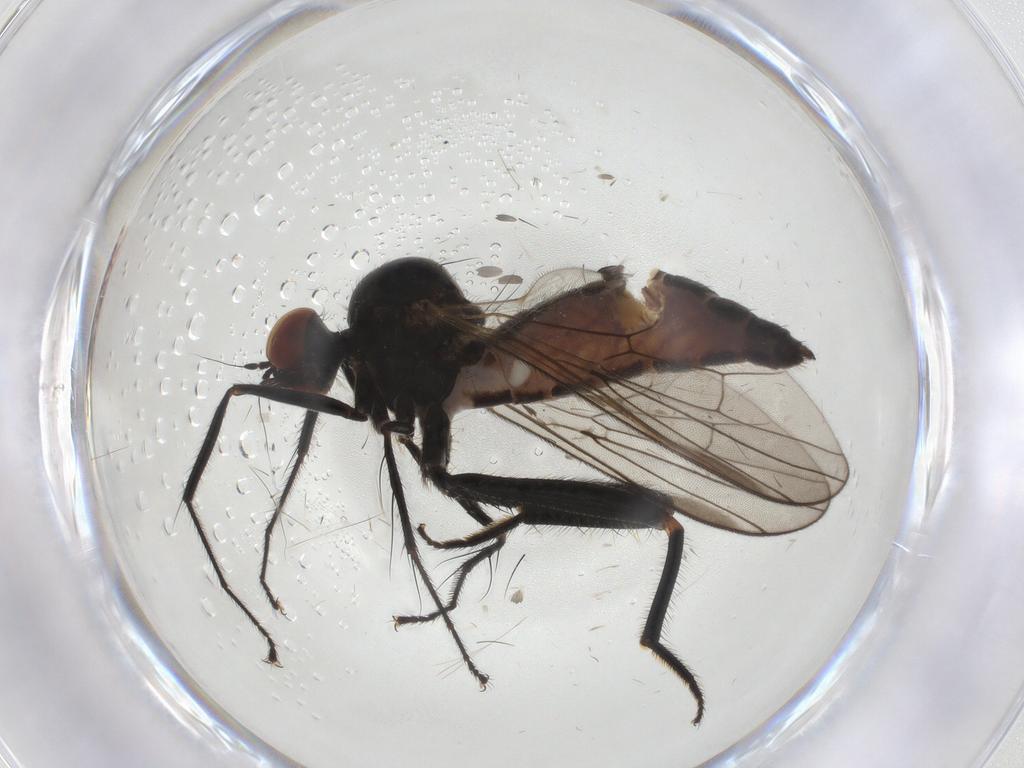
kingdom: Animalia
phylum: Arthropoda
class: Insecta
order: Diptera
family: Hybotidae
